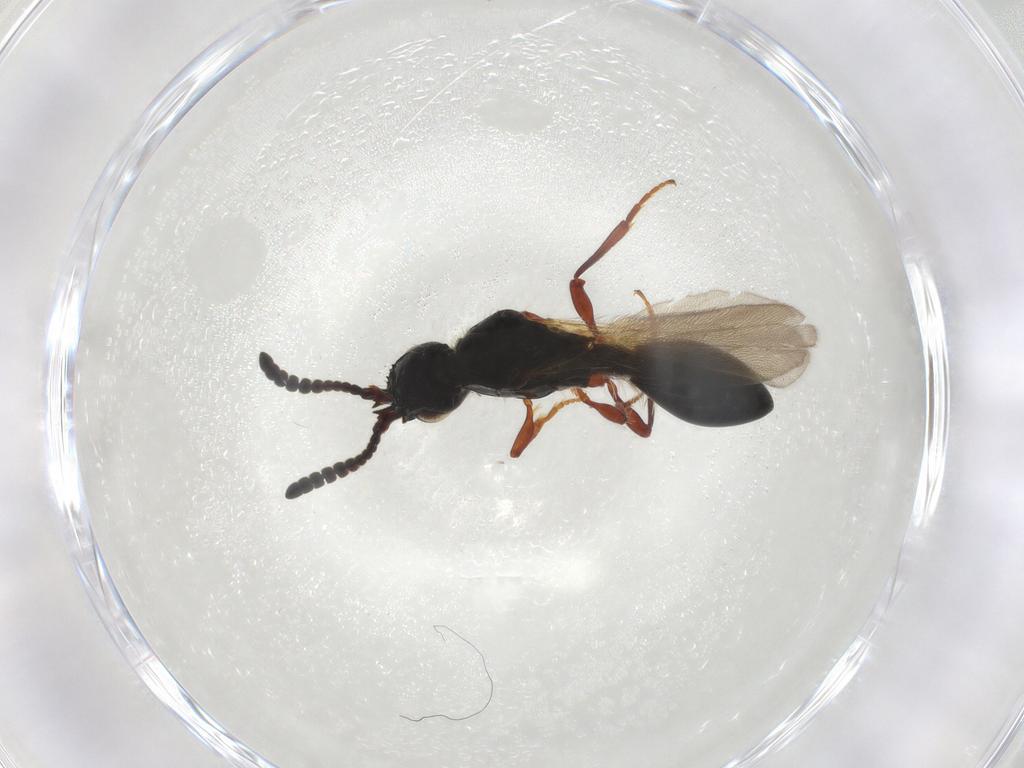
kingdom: Animalia
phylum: Arthropoda
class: Insecta
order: Hymenoptera
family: Diapriidae
